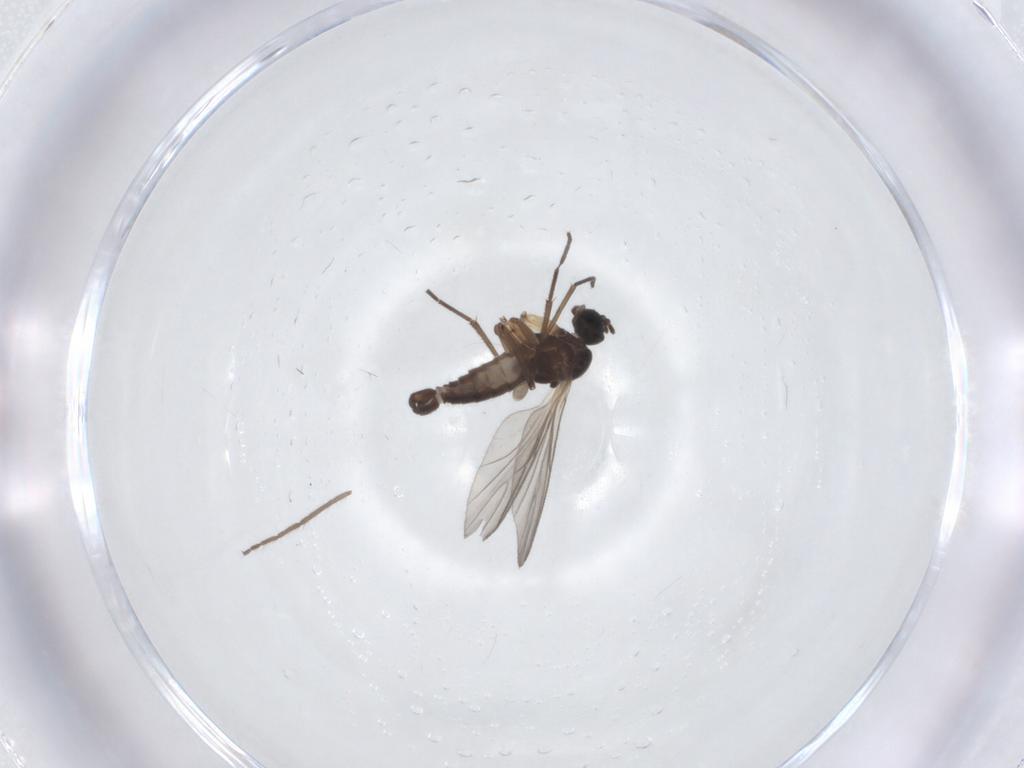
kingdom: Animalia
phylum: Arthropoda
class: Insecta
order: Diptera
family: Sciaridae
